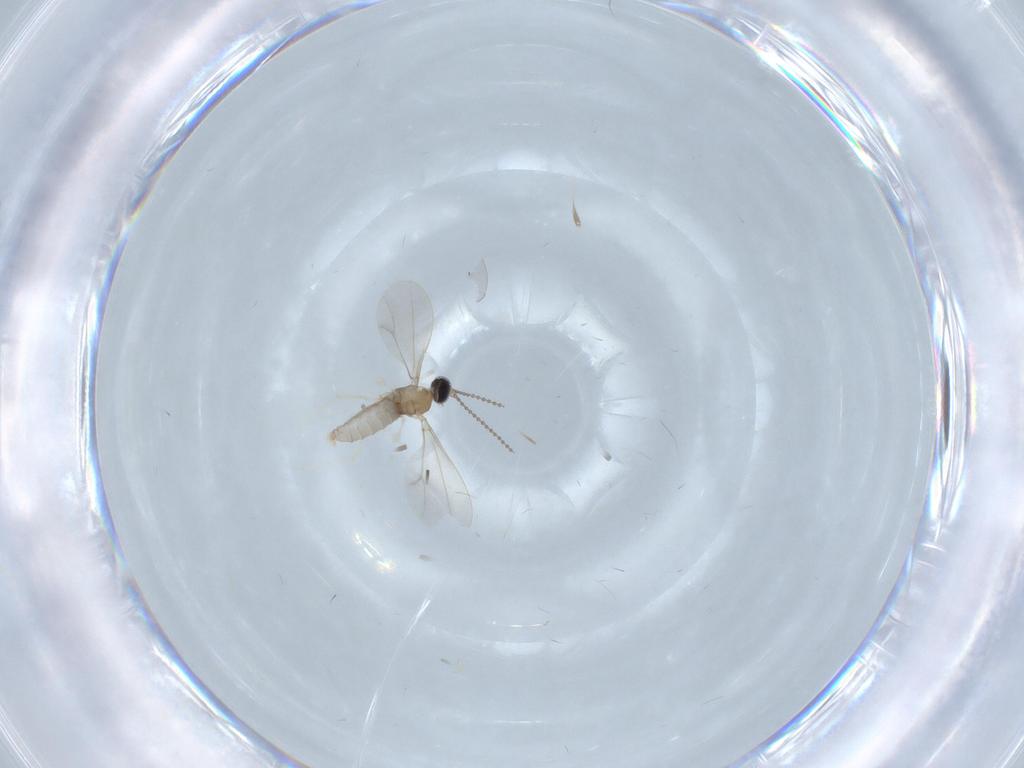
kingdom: Animalia
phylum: Arthropoda
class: Insecta
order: Diptera
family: Cecidomyiidae
